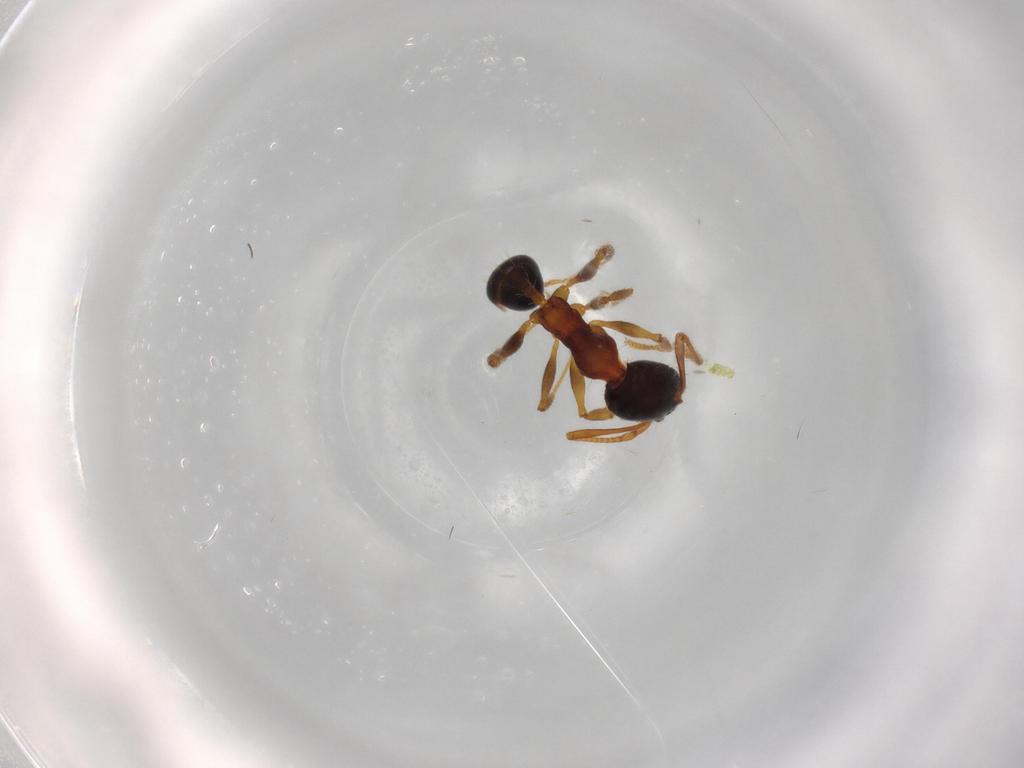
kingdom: Animalia
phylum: Arthropoda
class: Insecta
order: Hymenoptera
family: Formicidae
